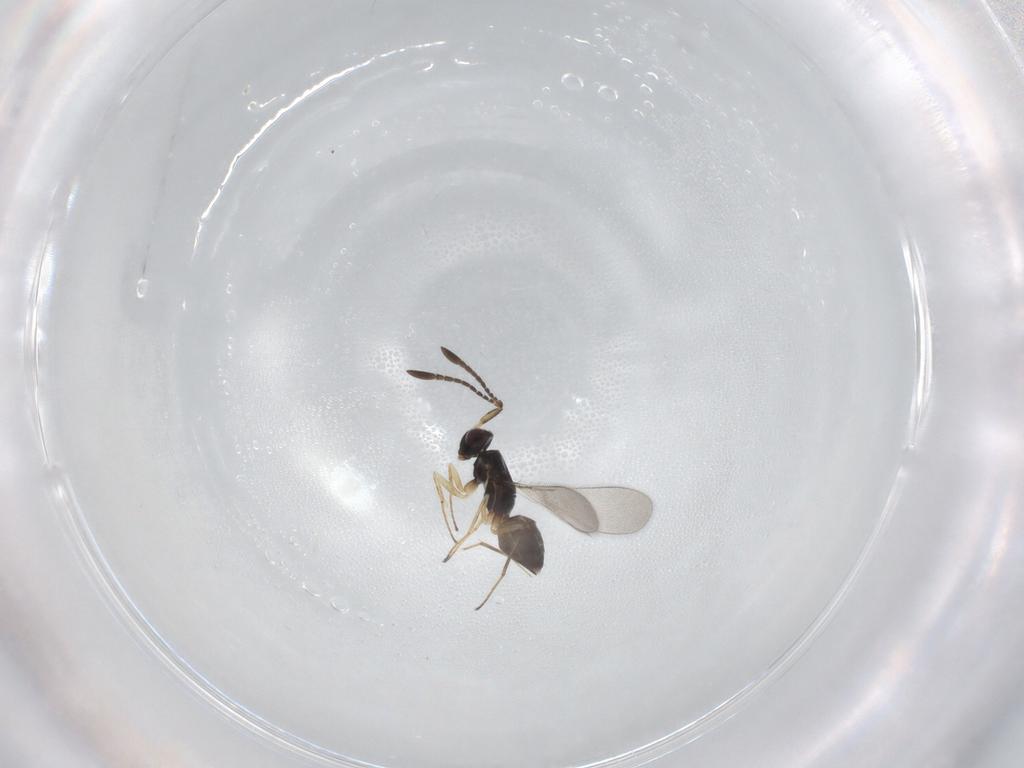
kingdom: Animalia
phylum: Arthropoda
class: Insecta
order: Hymenoptera
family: Mymaridae
